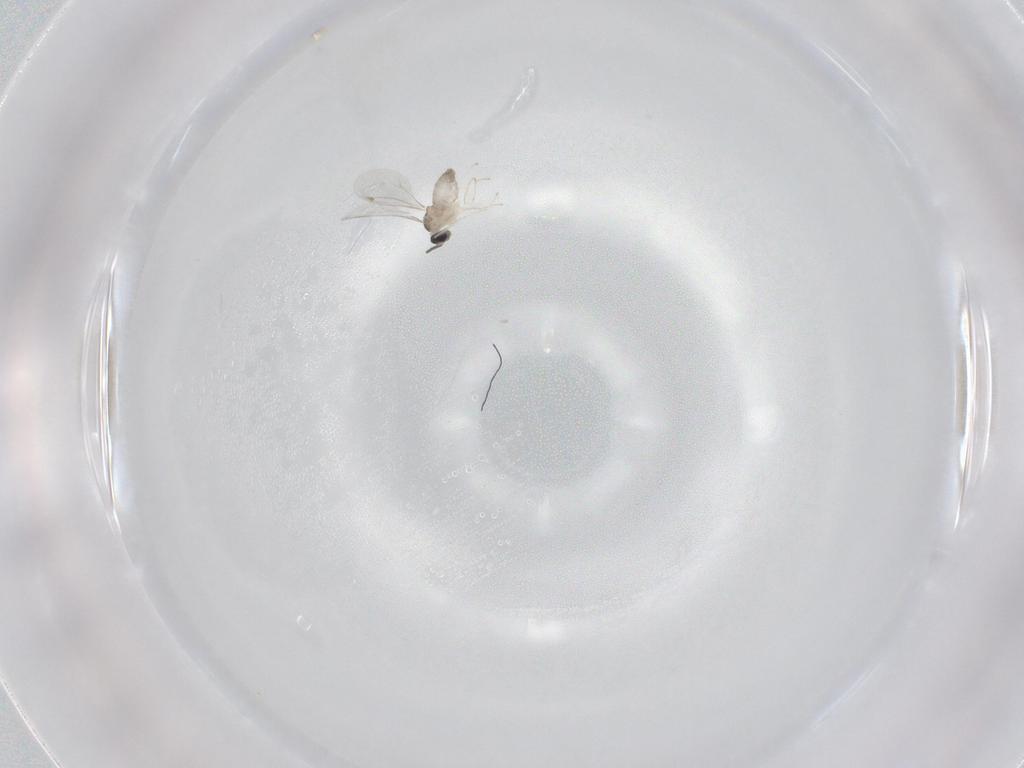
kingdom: Animalia
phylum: Arthropoda
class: Insecta
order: Diptera
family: Cecidomyiidae
